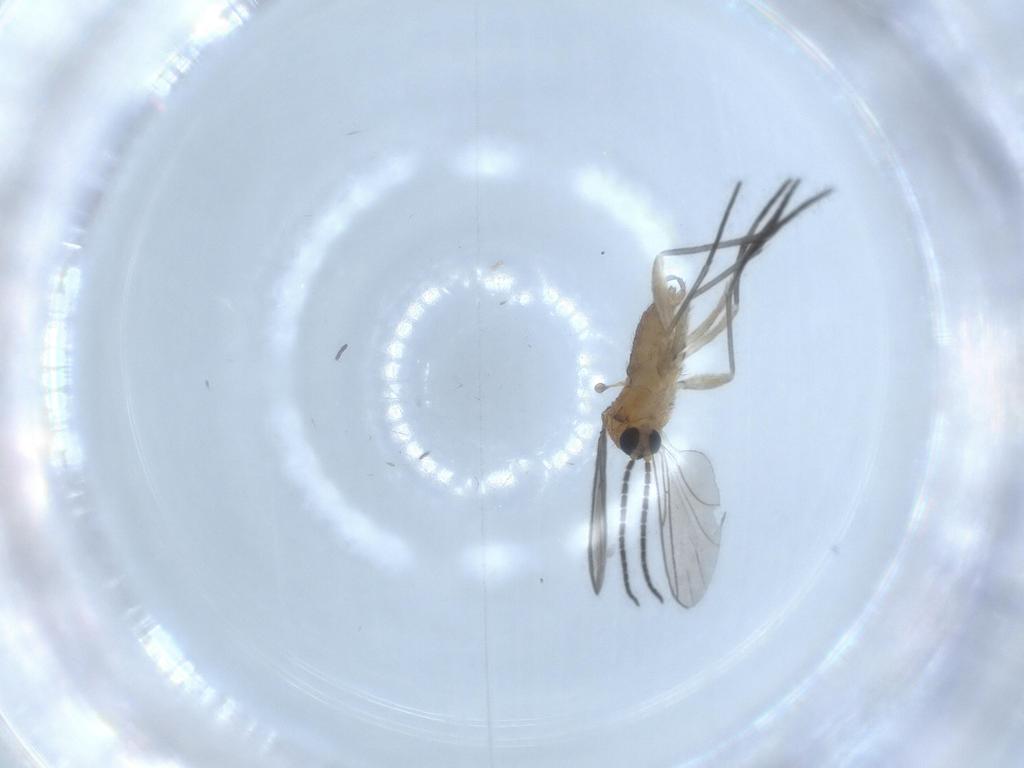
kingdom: Animalia
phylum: Arthropoda
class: Insecta
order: Diptera
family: Sciaridae
